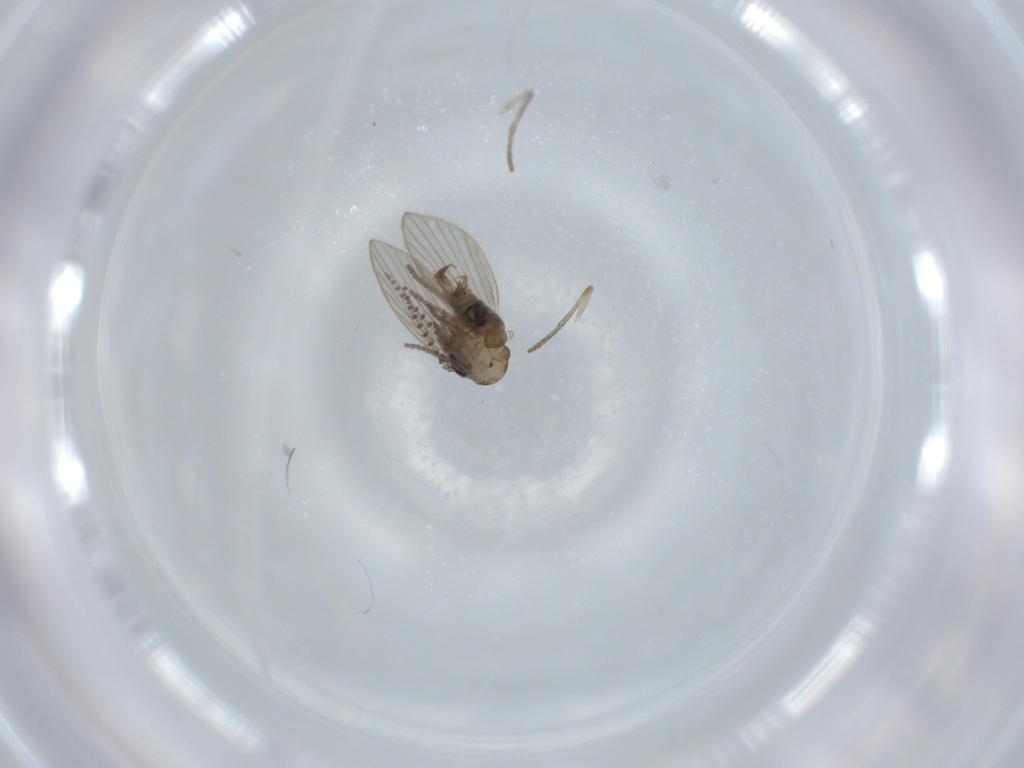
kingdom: Animalia
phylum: Arthropoda
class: Insecta
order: Diptera
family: Psychodidae
